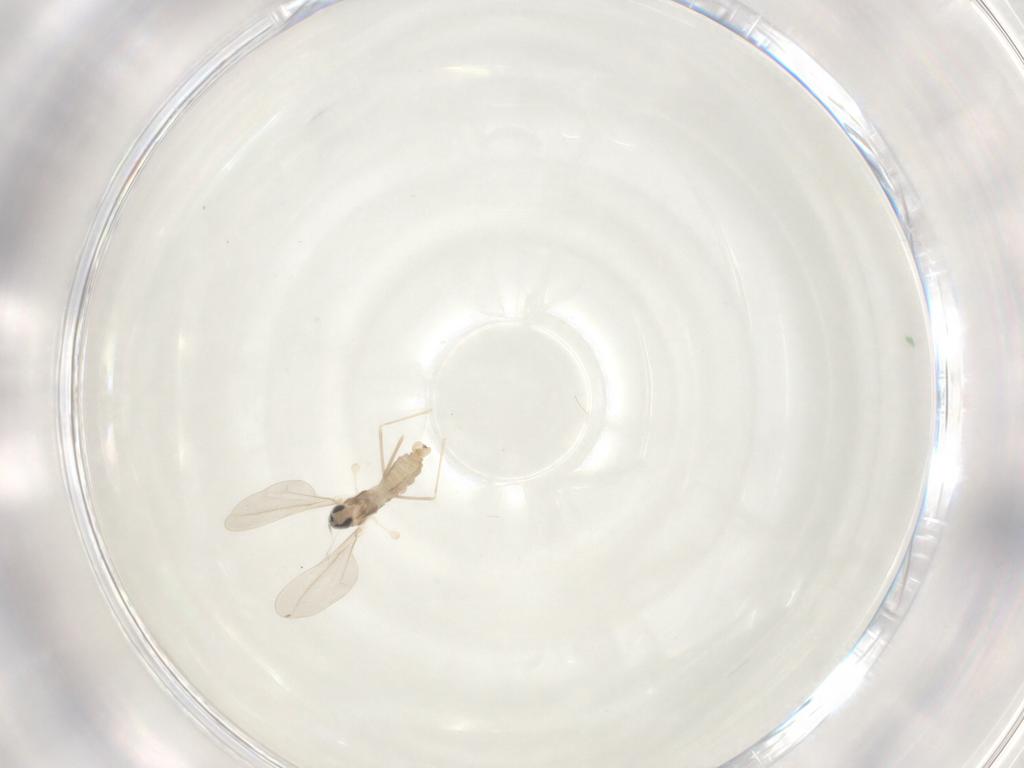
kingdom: Animalia
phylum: Arthropoda
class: Insecta
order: Diptera
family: Cecidomyiidae
